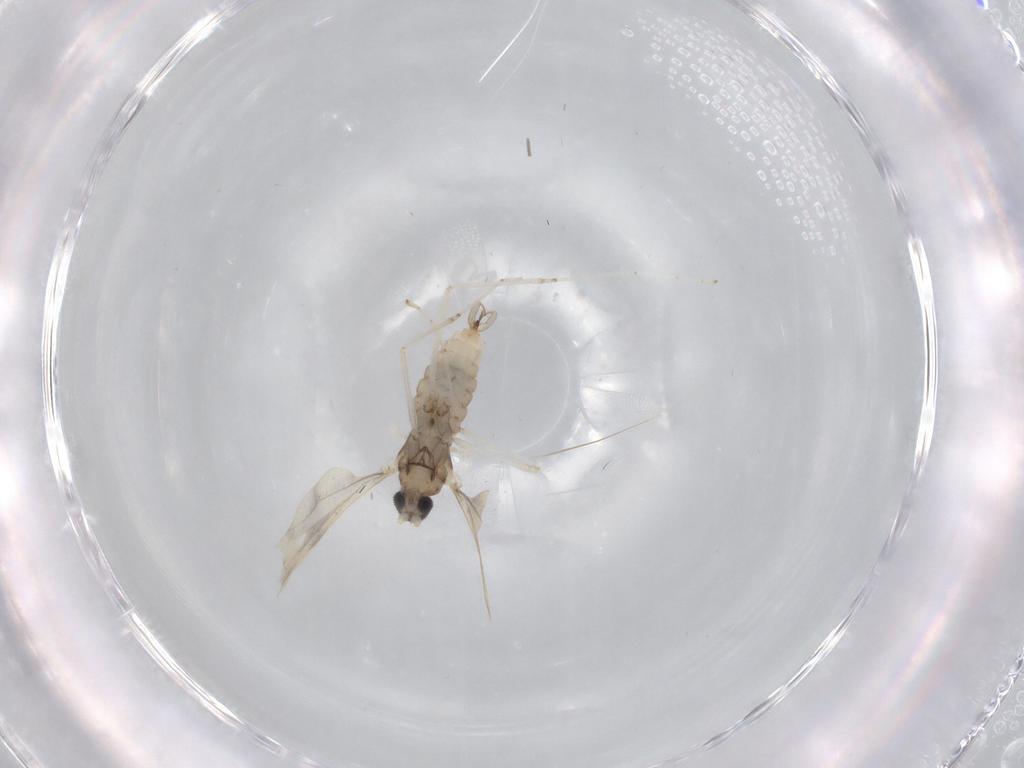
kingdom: Animalia
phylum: Arthropoda
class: Insecta
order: Diptera
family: Cecidomyiidae
